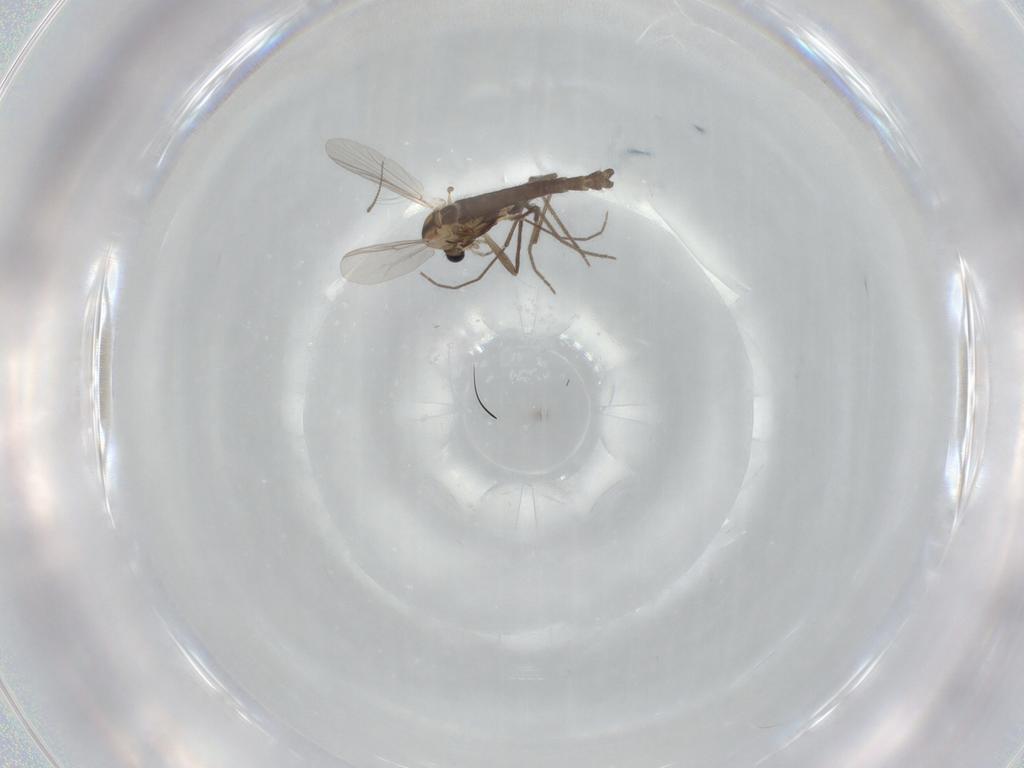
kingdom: Animalia
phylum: Arthropoda
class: Insecta
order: Diptera
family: Chironomidae
